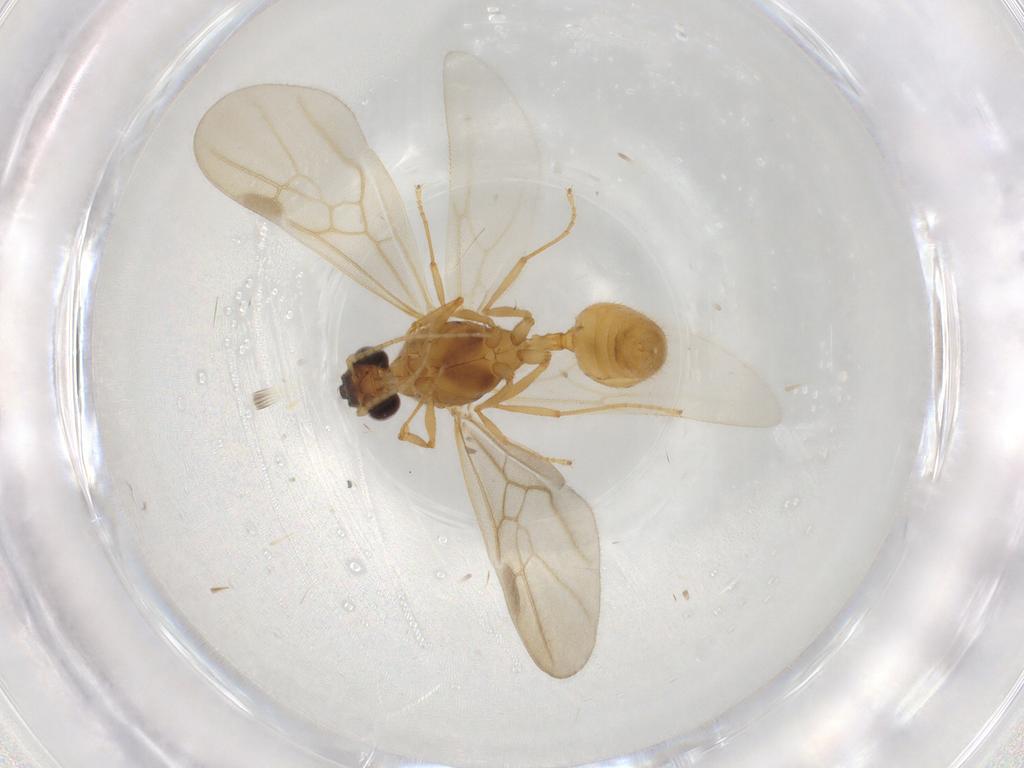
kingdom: Animalia
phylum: Arthropoda
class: Insecta
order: Hymenoptera
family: Formicidae
